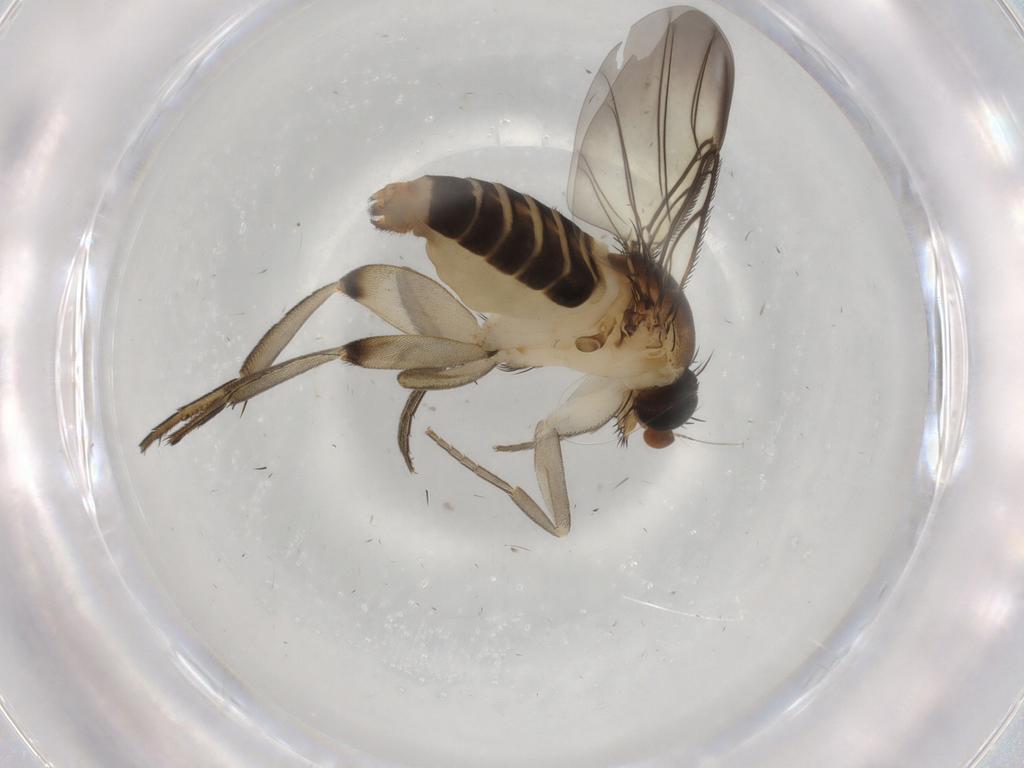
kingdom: Animalia
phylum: Arthropoda
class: Insecta
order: Diptera
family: Phoridae
